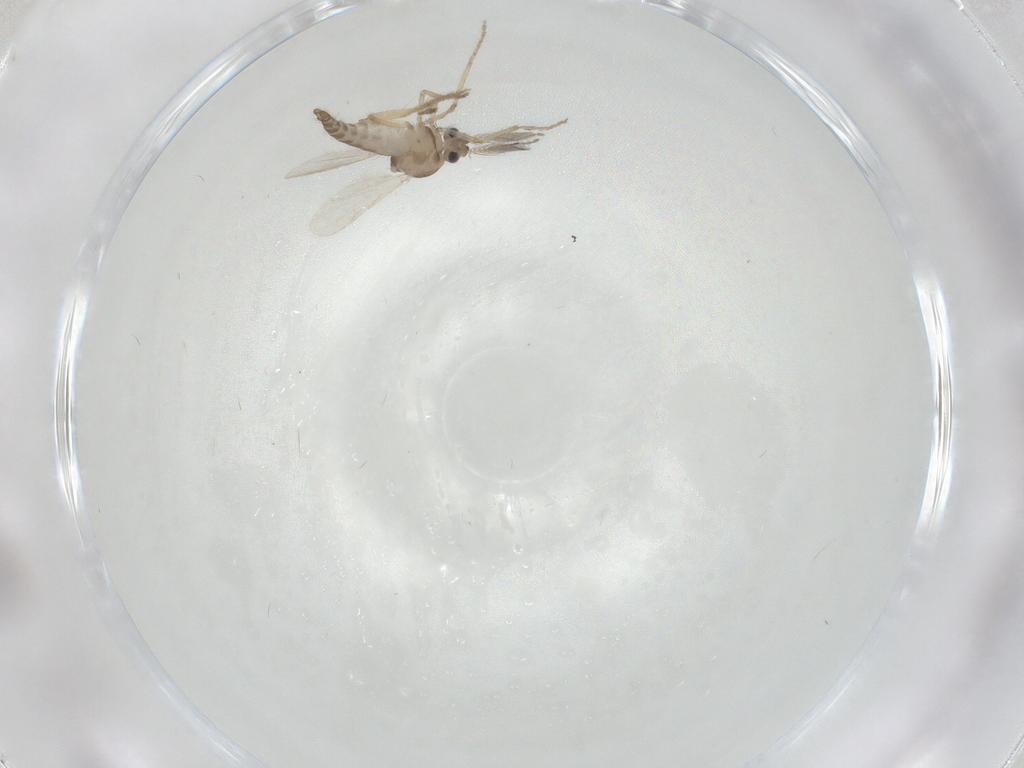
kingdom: Animalia
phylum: Arthropoda
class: Insecta
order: Diptera
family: Ceratopogonidae
